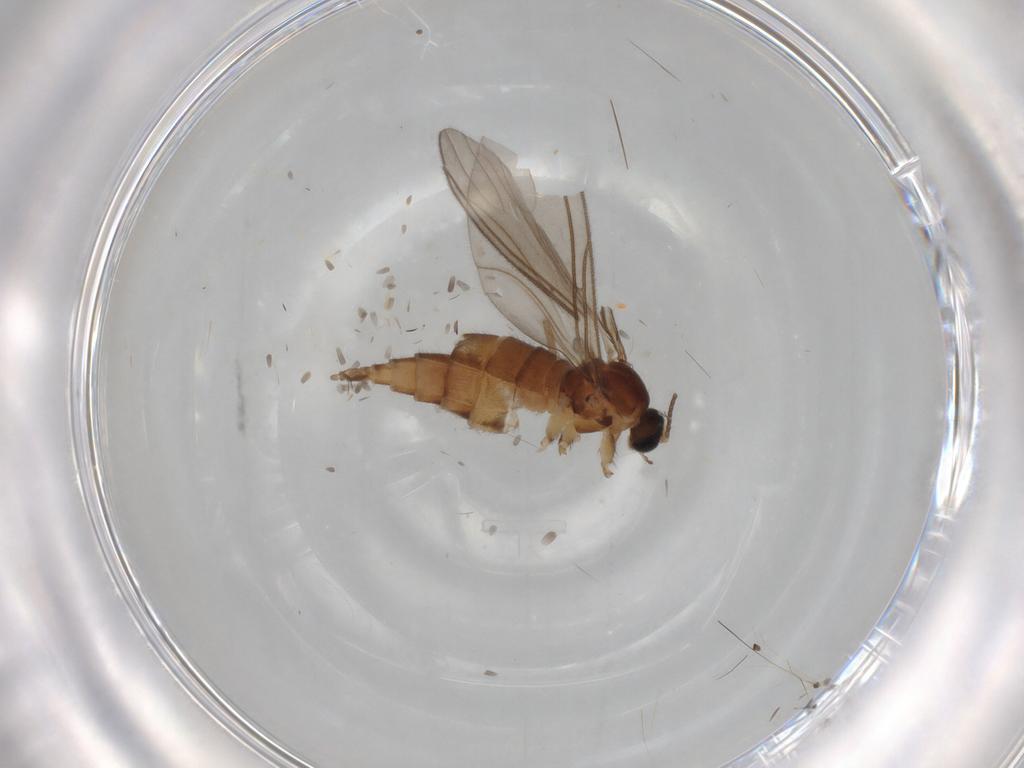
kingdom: Animalia
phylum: Arthropoda
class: Insecta
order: Diptera
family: Sciaridae
